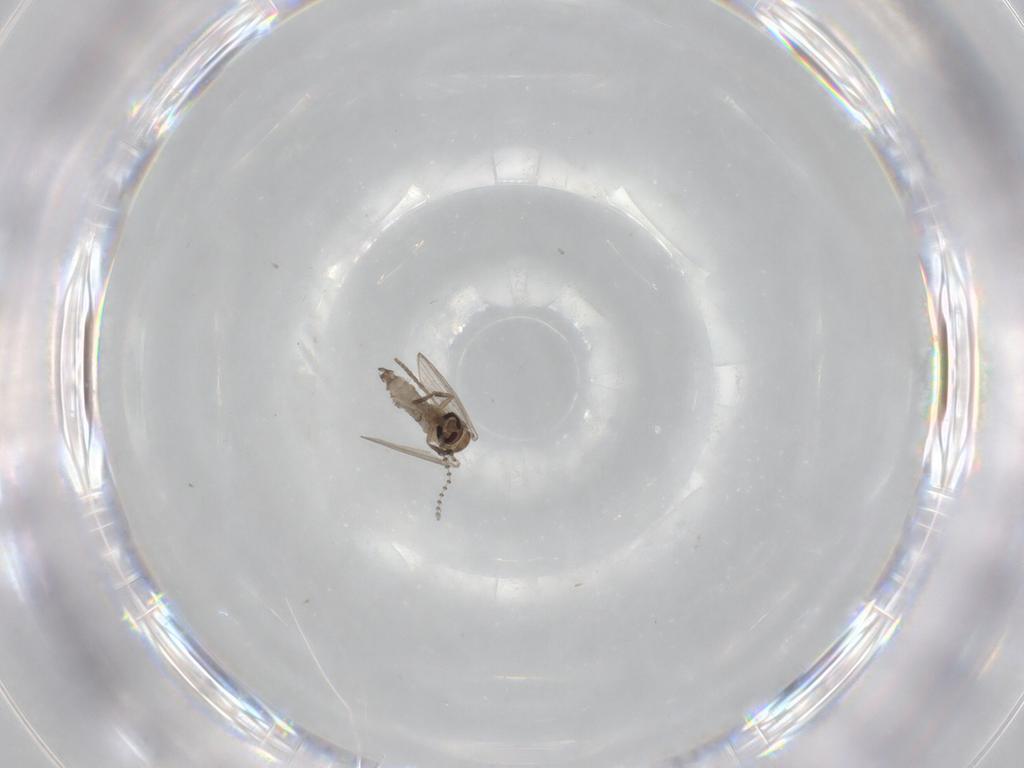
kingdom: Animalia
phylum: Arthropoda
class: Insecta
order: Diptera
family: Psychodidae
